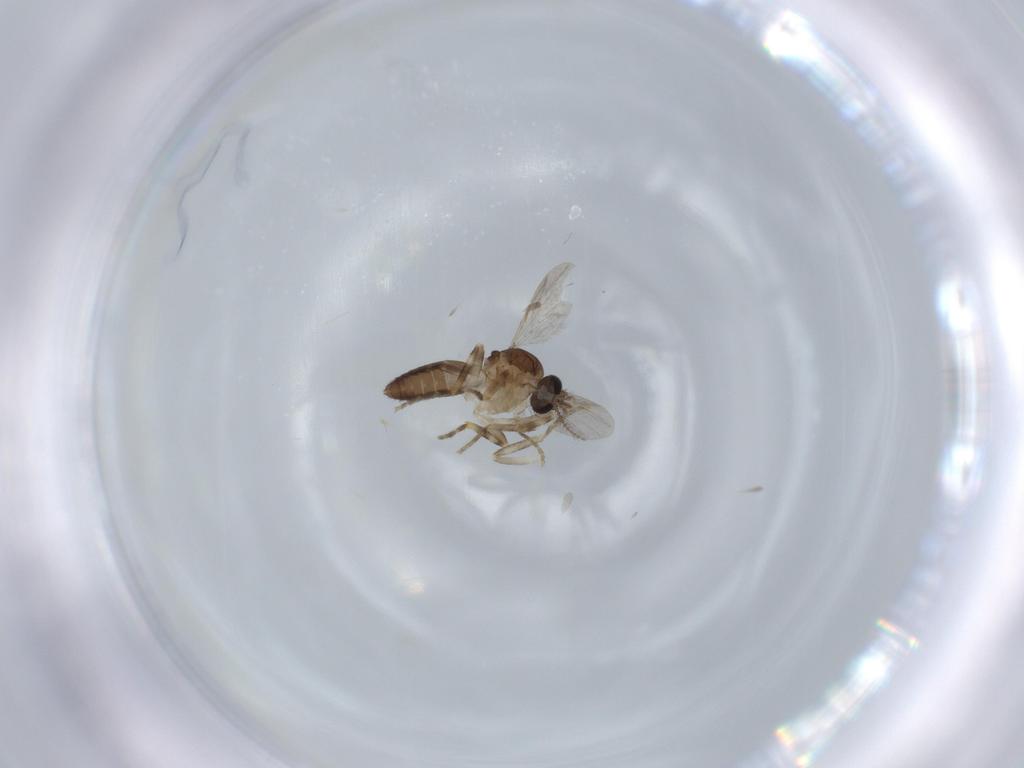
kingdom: Animalia
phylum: Arthropoda
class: Insecta
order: Diptera
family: Ceratopogonidae
